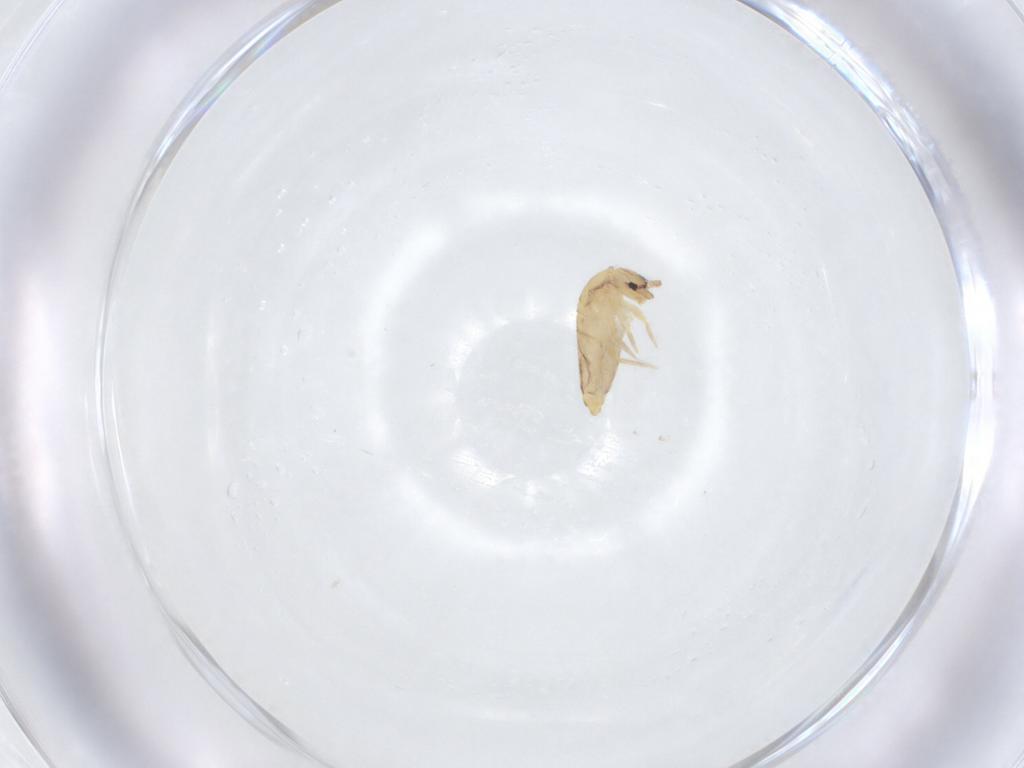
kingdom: Animalia
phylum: Arthropoda
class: Collembola
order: Entomobryomorpha
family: Entomobryidae
